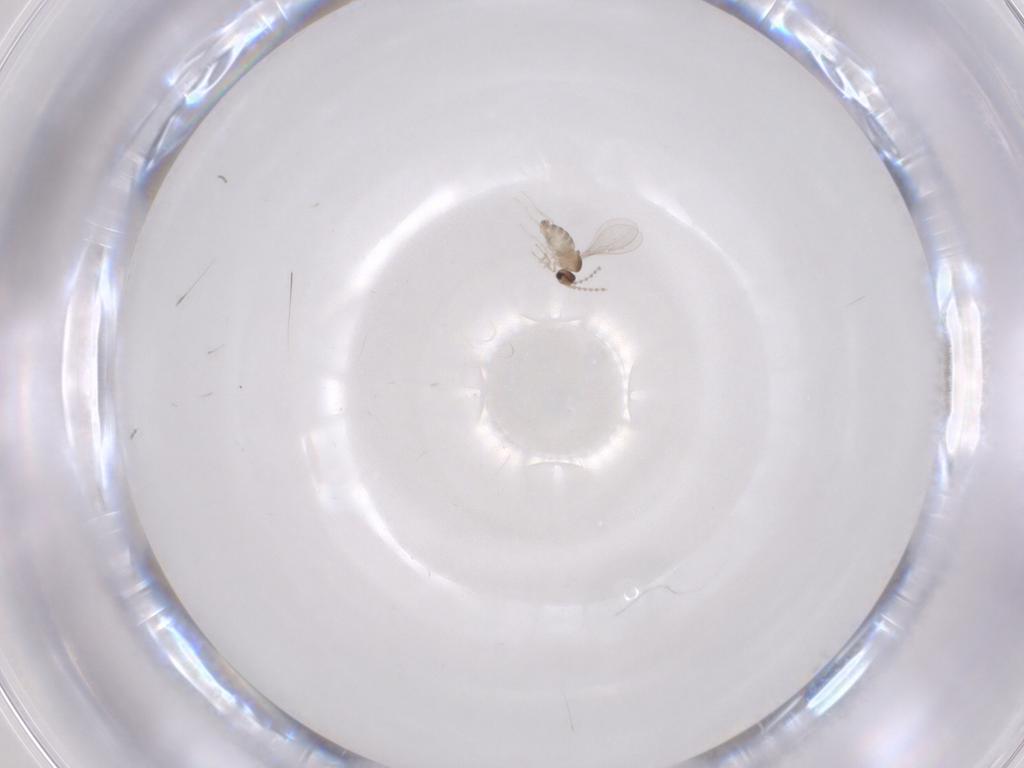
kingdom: Animalia
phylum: Arthropoda
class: Insecta
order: Diptera
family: Cecidomyiidae
